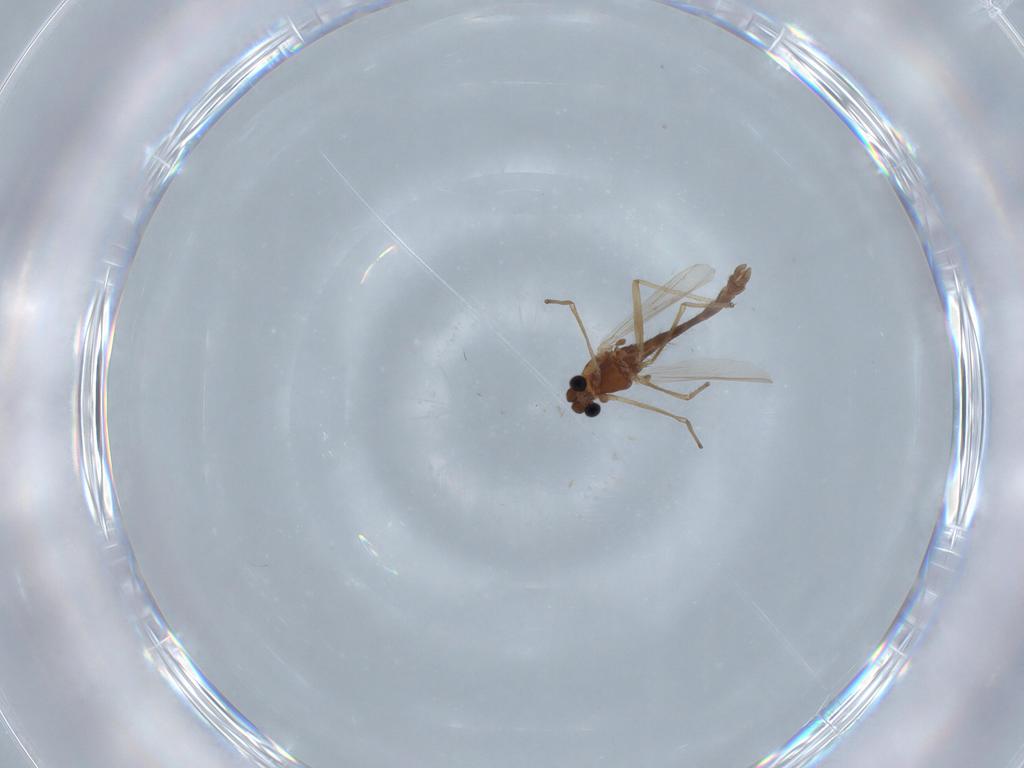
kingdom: Animalia
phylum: Arthropoda
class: Insecta
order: Diptera
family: Chironomidae
